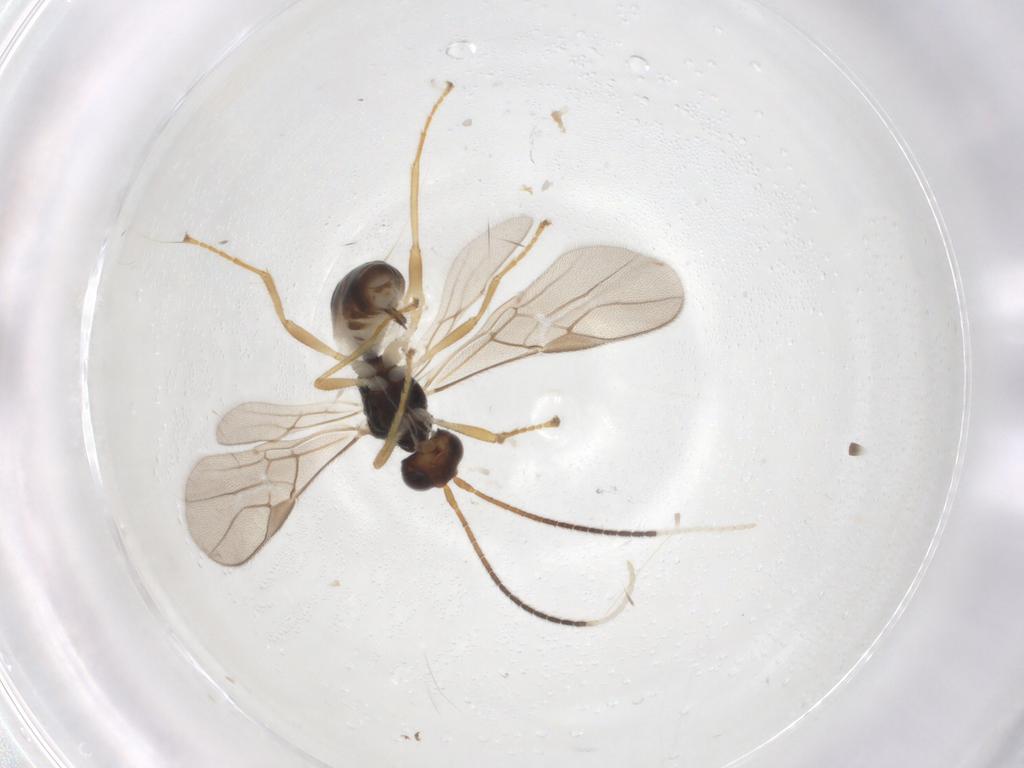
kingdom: Animalia
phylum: Arthropoda
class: Insecta
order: Hymenoptera
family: Braconidae
